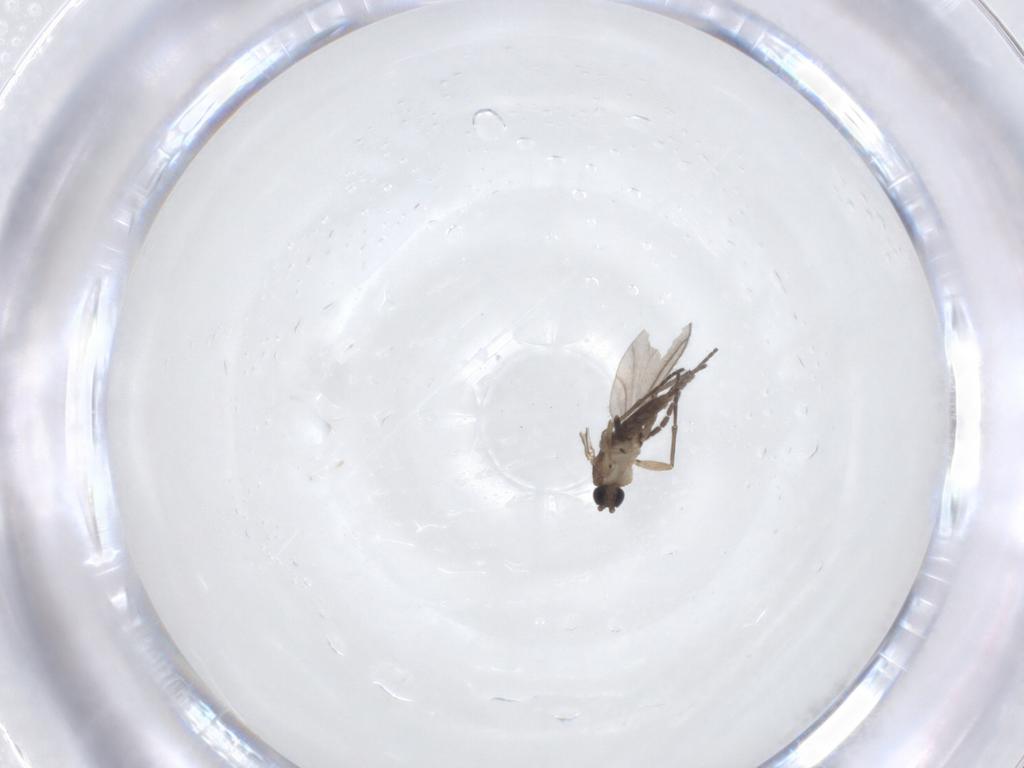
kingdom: Animalia
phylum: Arthropoda
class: Insecta
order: Diptera
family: Sciaridae
